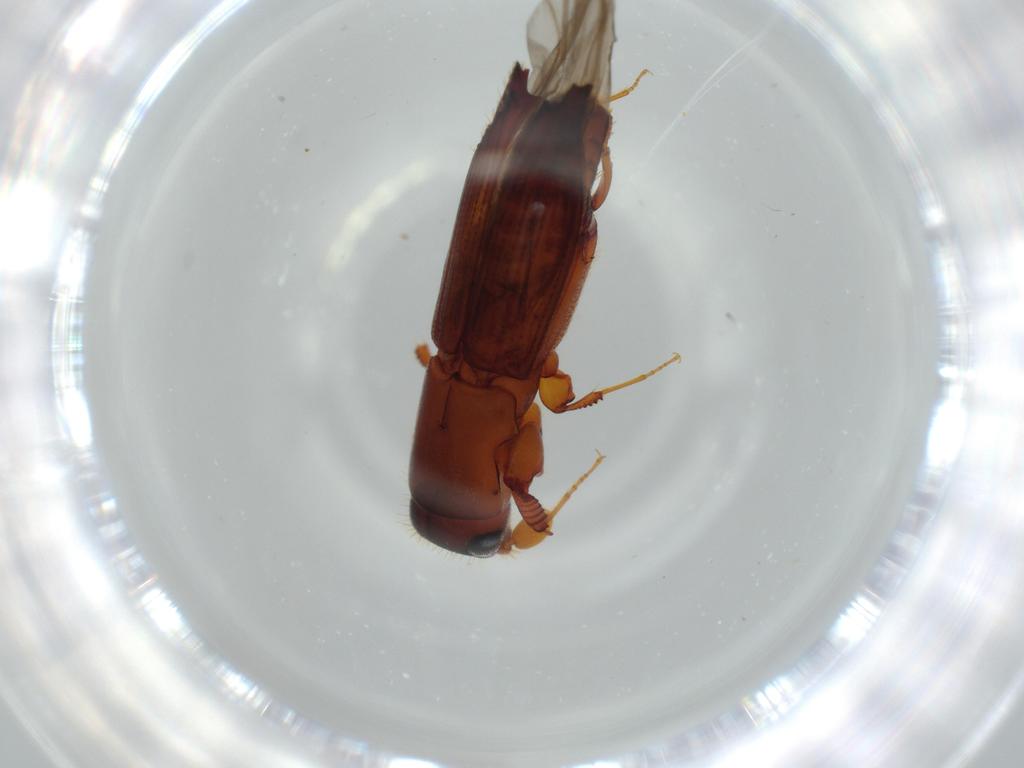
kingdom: Animalia
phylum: Arthropoda
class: Insecta
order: Coleoptera
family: Curculionidae
